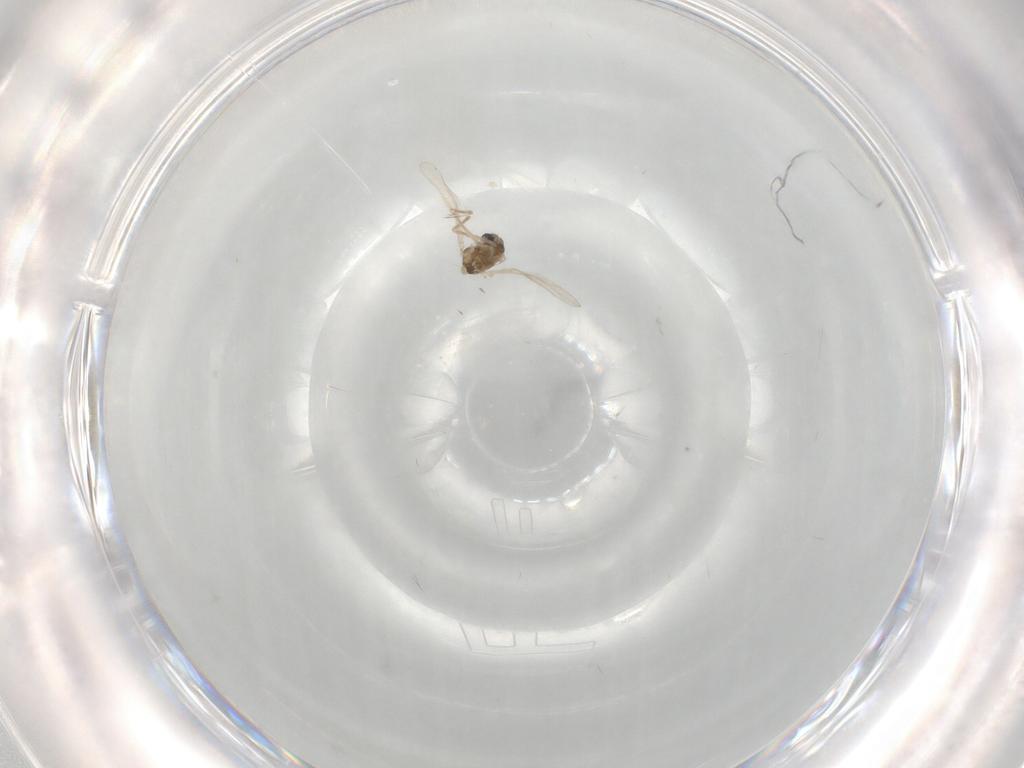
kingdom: Animalia
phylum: Arthropoda
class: Insecta
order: Diptera
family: Chironomidae
